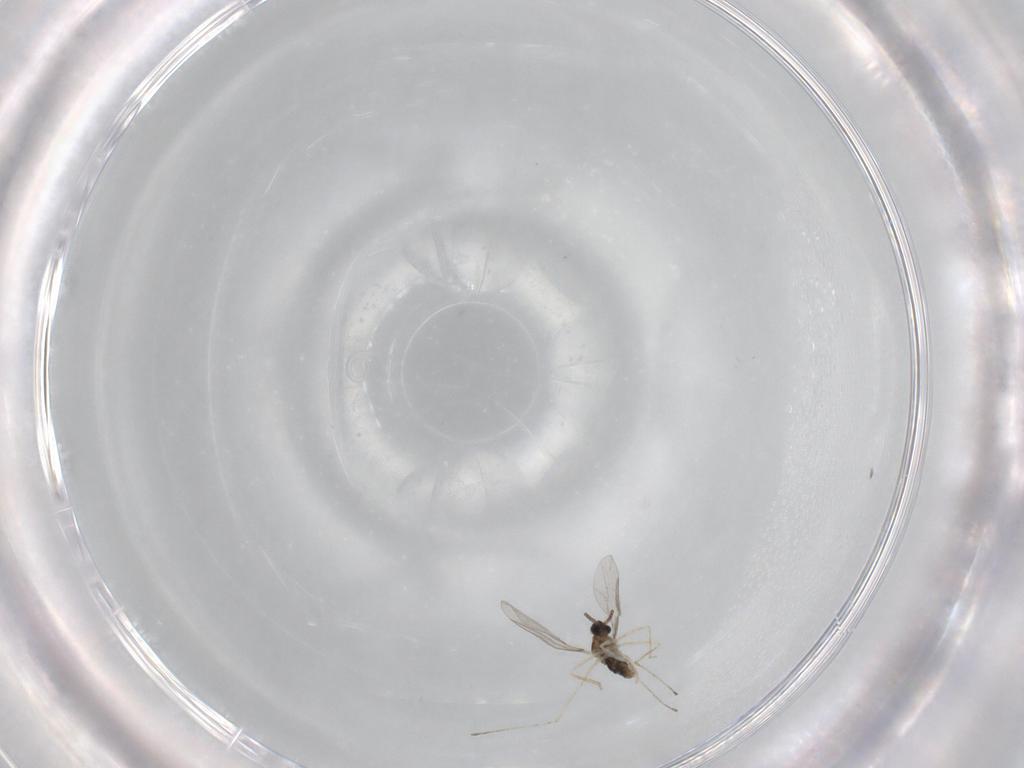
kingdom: Animalia
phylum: Arthropoda
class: Insecta
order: Diptera
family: Cecidomyiidae
